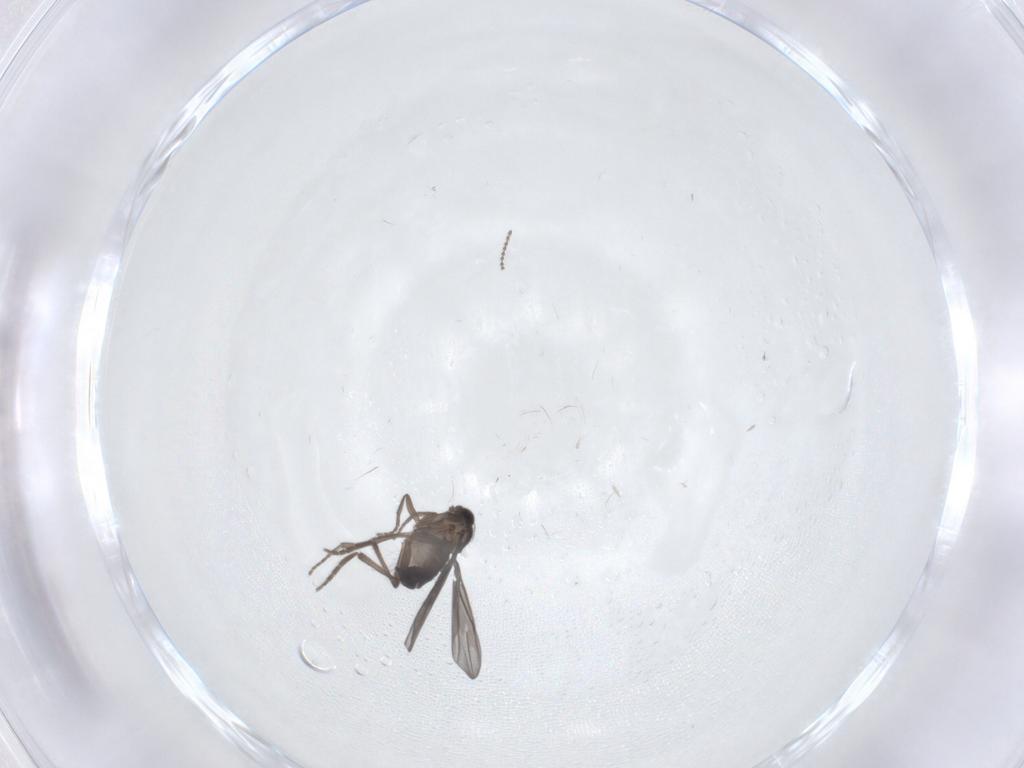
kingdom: Animalia
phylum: Arthropoda
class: Insecta
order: Diptera
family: Phoridae
